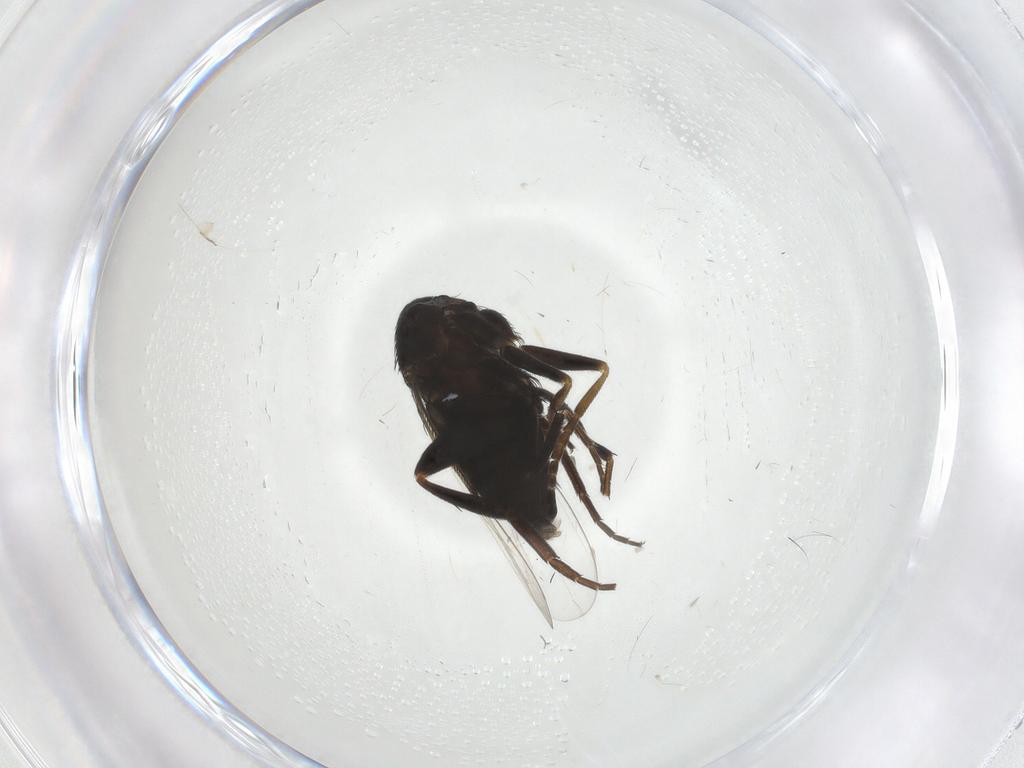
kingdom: Animalia
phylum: Arthropoda
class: Insecta
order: Diptera
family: Phoridae
